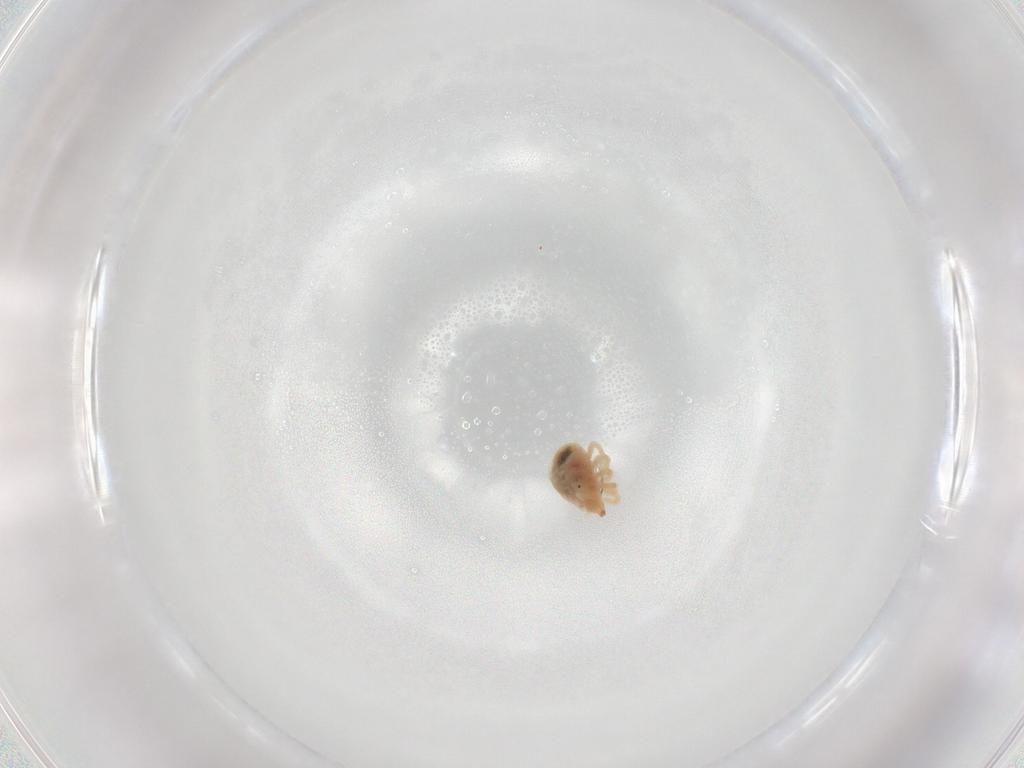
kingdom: Animalia
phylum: Arthropoda
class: Arachnida
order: Trombidiformes
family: Bdellidae
